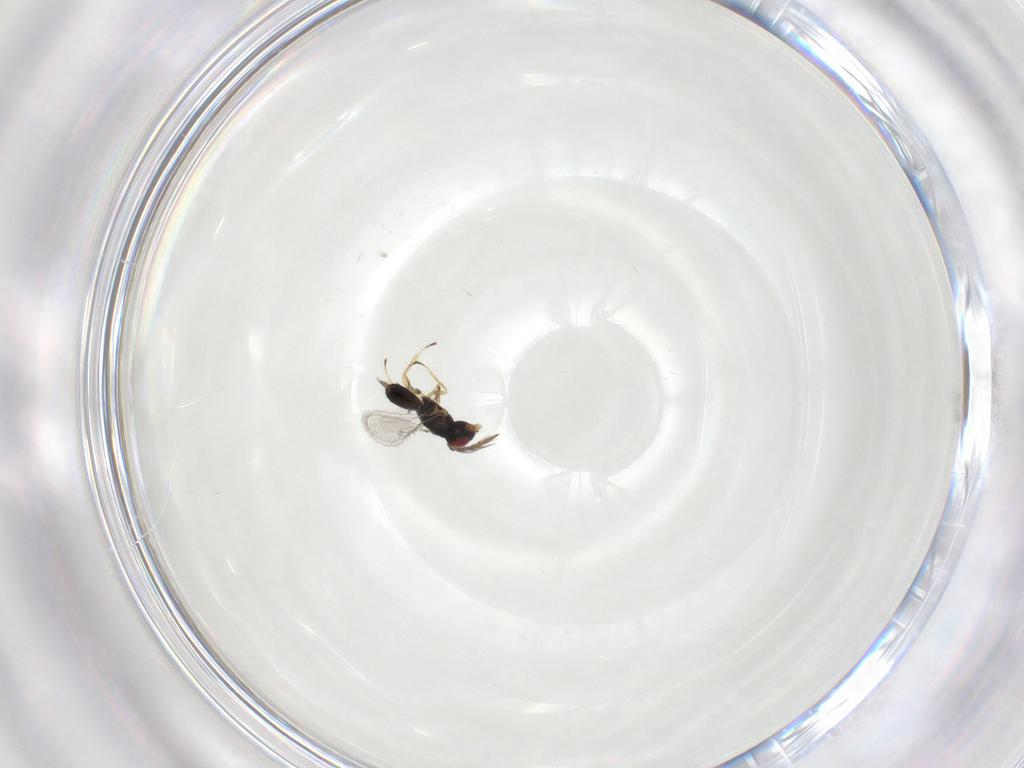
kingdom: Animalia
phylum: Arthropoda
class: Insecta
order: Hymenoptera
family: Eulophidae
